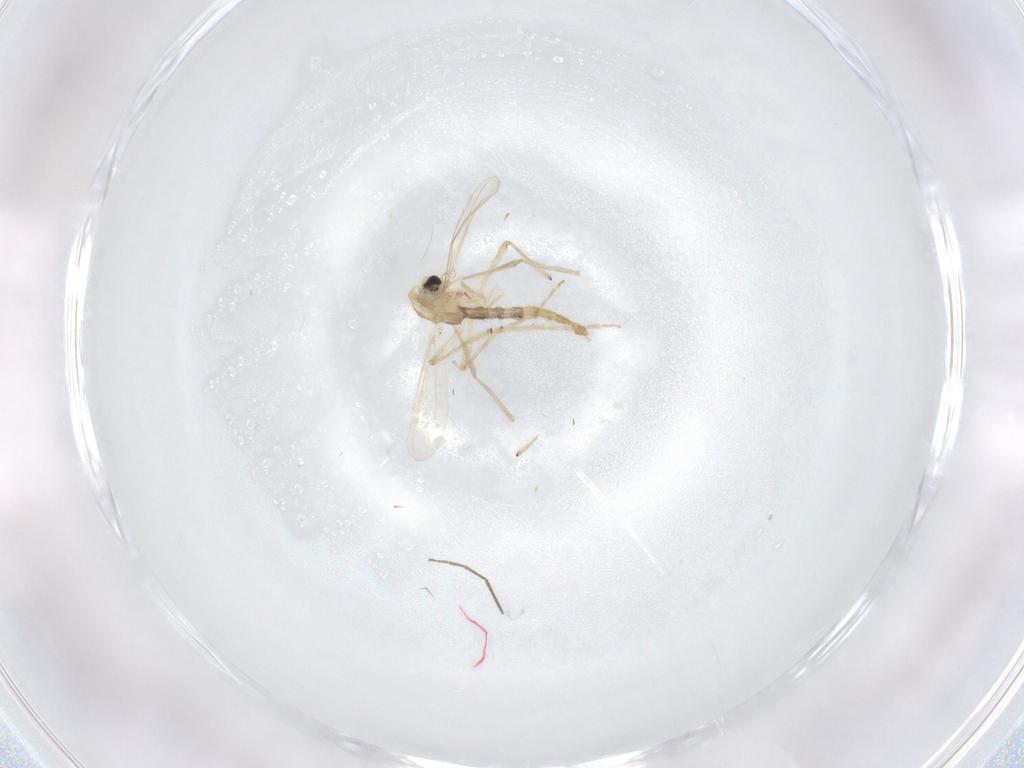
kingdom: Animalia
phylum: Arthropoda
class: Insecta
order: Diptera
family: Chironomidae
